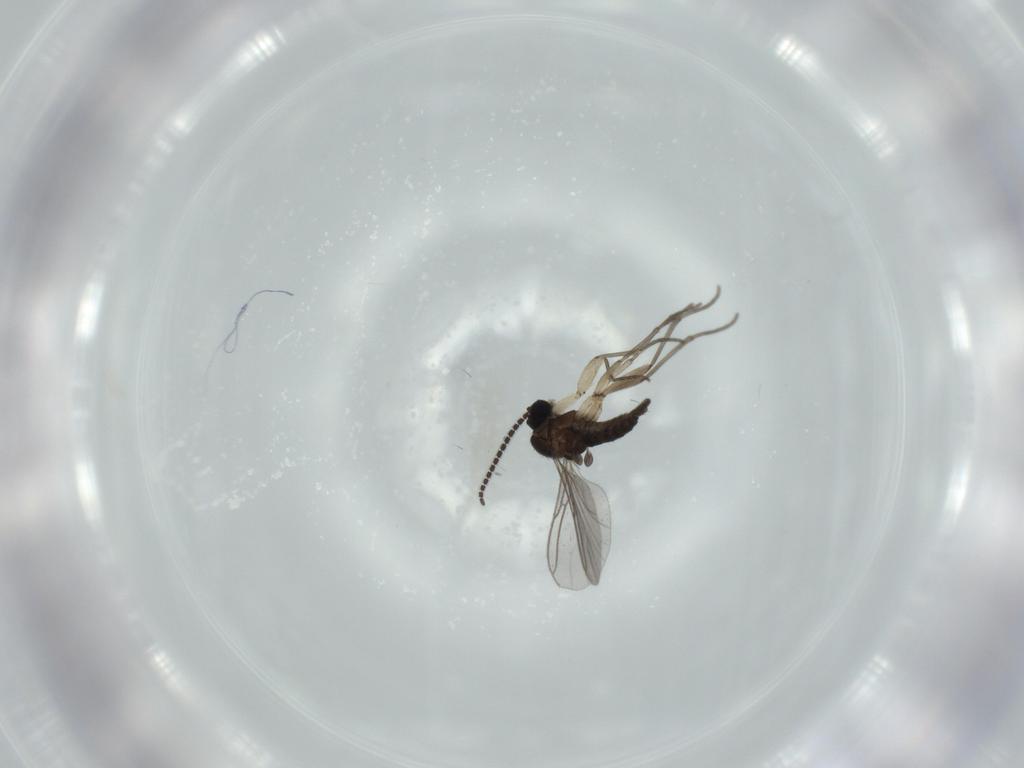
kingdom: Animalia
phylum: Arthropoda
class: Insecta
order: Diptera
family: Sciaridae
